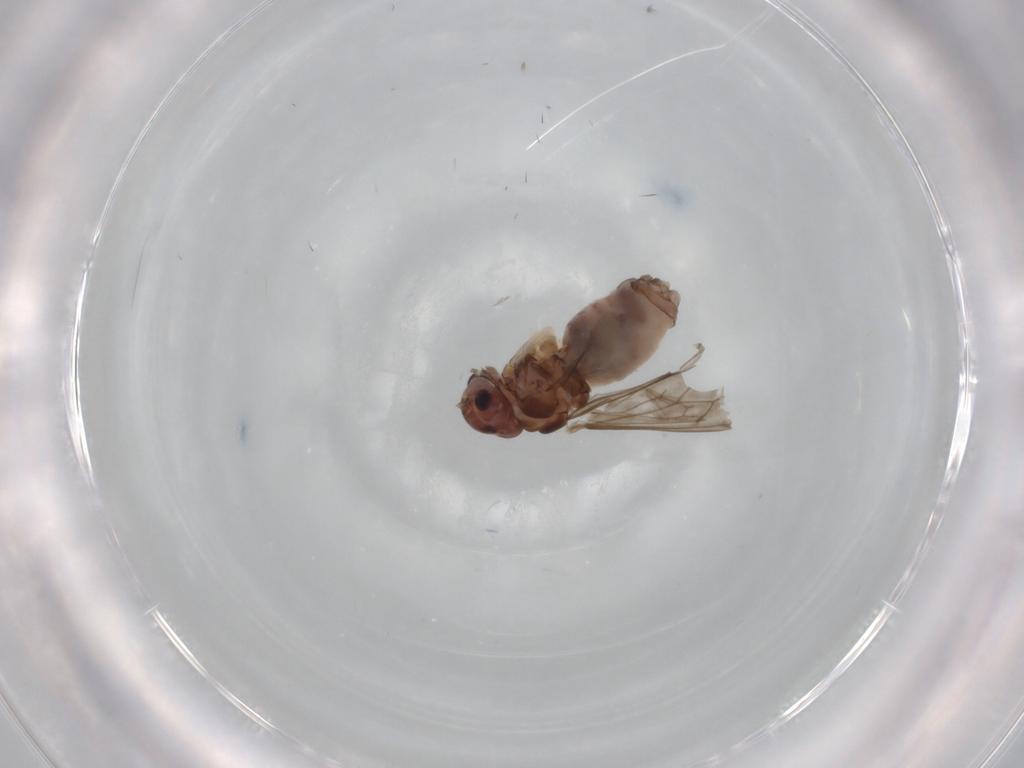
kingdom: Animalia
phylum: Arthropoda
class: Insecta
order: Psocodea
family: Peripsocidae
